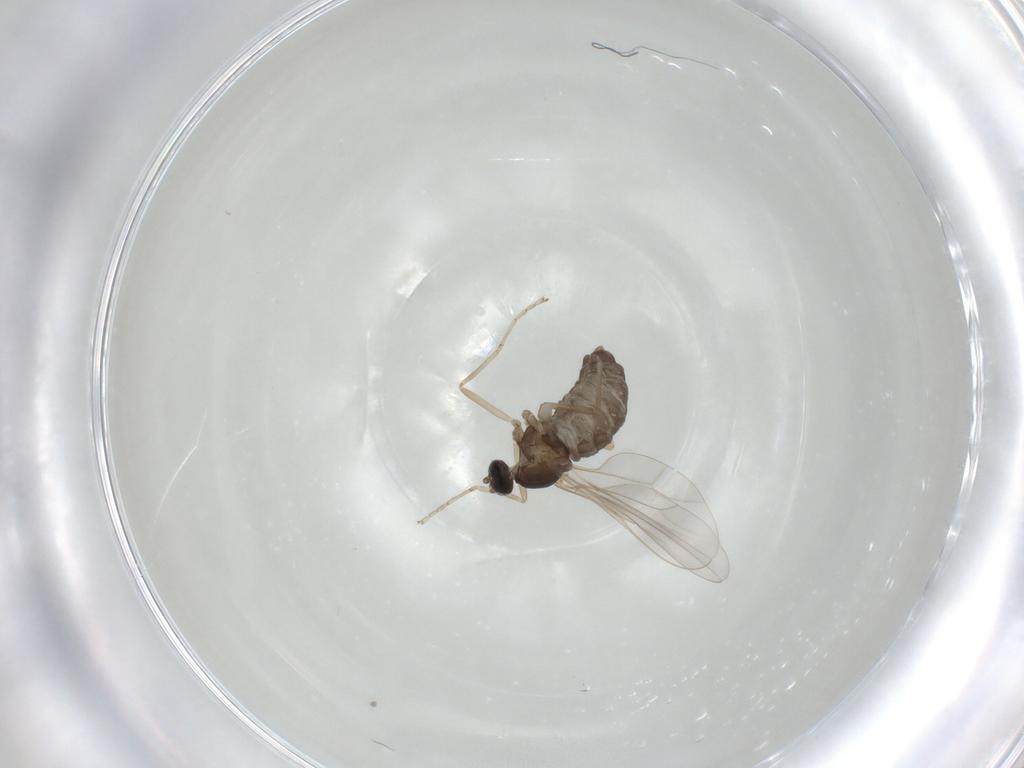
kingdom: Animalia
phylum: Arthropoda
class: Insecta
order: Diptera
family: Cecidomyiidae
